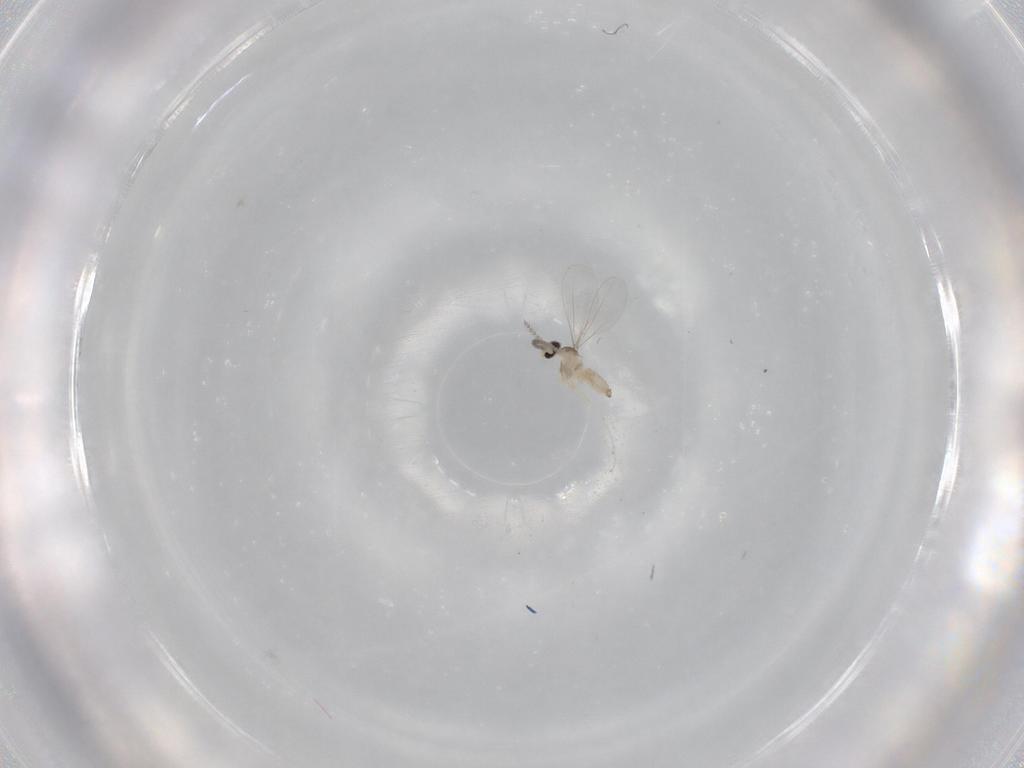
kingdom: Animalia
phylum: Arthropoda
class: Insecta
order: Diptera
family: Cecidomyiidae
